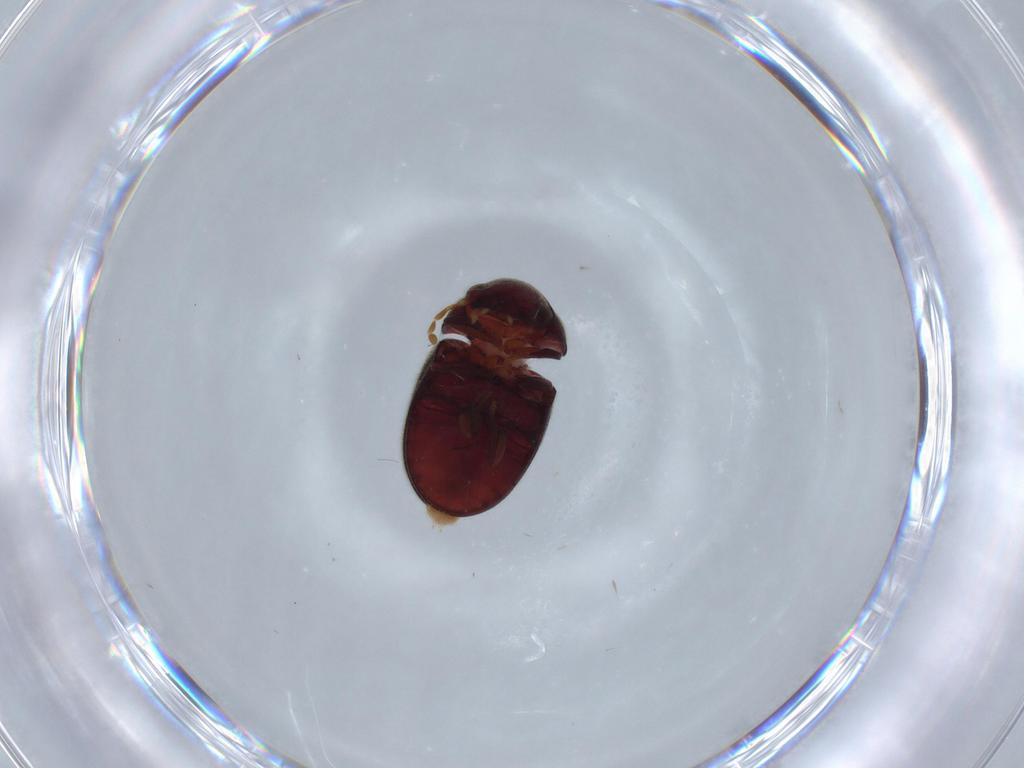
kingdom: Animalia
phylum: Arthropoda
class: Insecta
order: Coleoptera
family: Ptinidae
